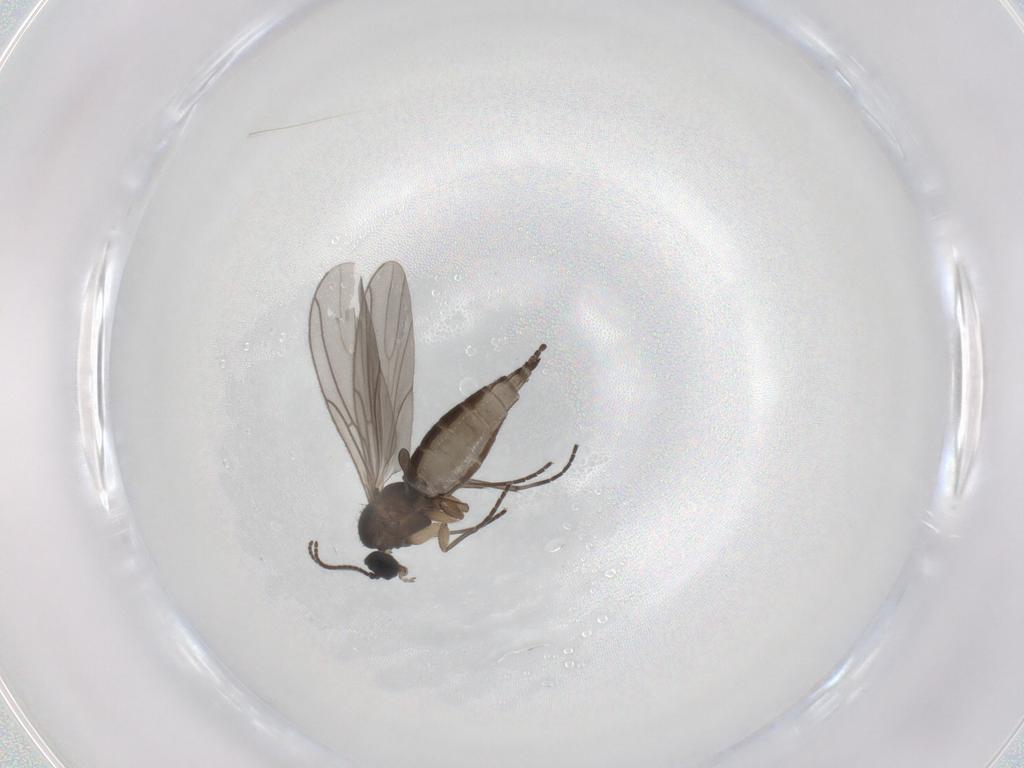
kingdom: Animalia
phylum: Arthropoda
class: Insecta
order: Diptera
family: Sciaridae
